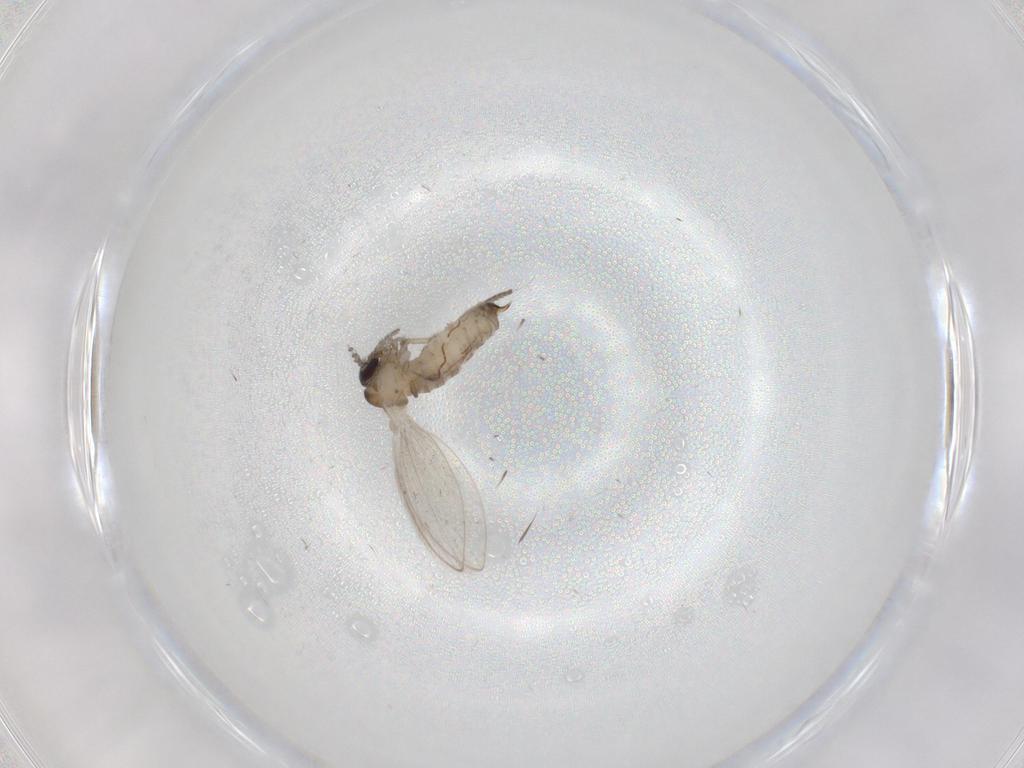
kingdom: Animalia
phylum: Arthropoda
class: Insecta
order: Diptera
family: Psychodidae
